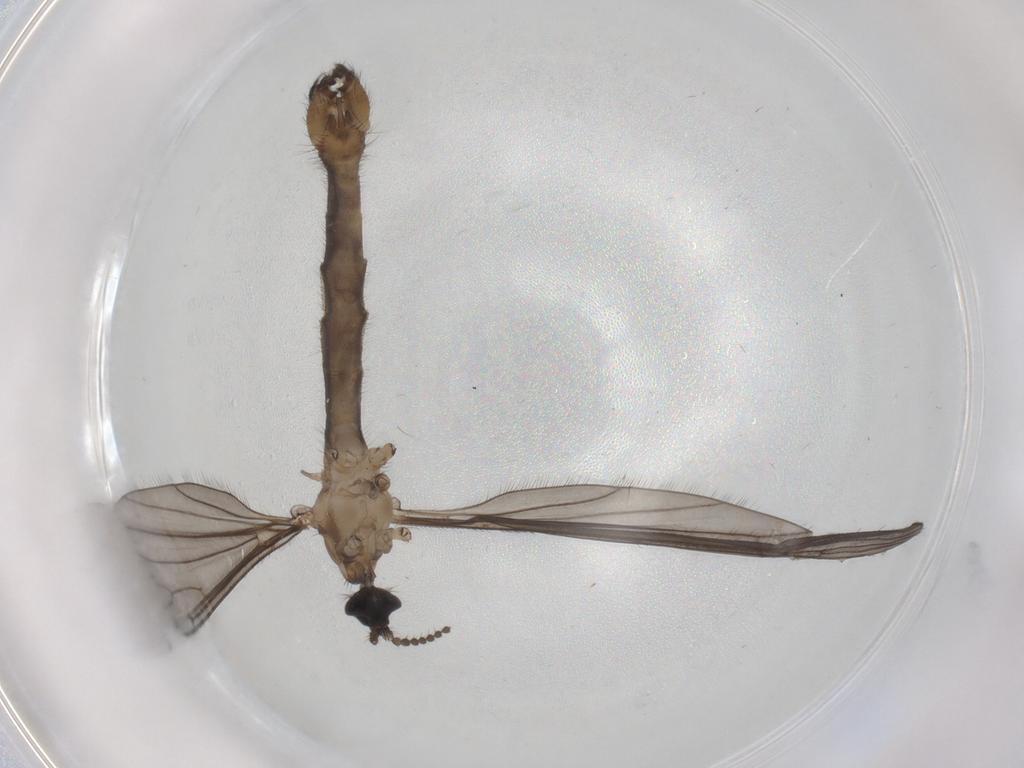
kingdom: Animalia
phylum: Arthropoda
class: Insecta
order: Diptera
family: Limoniidae
